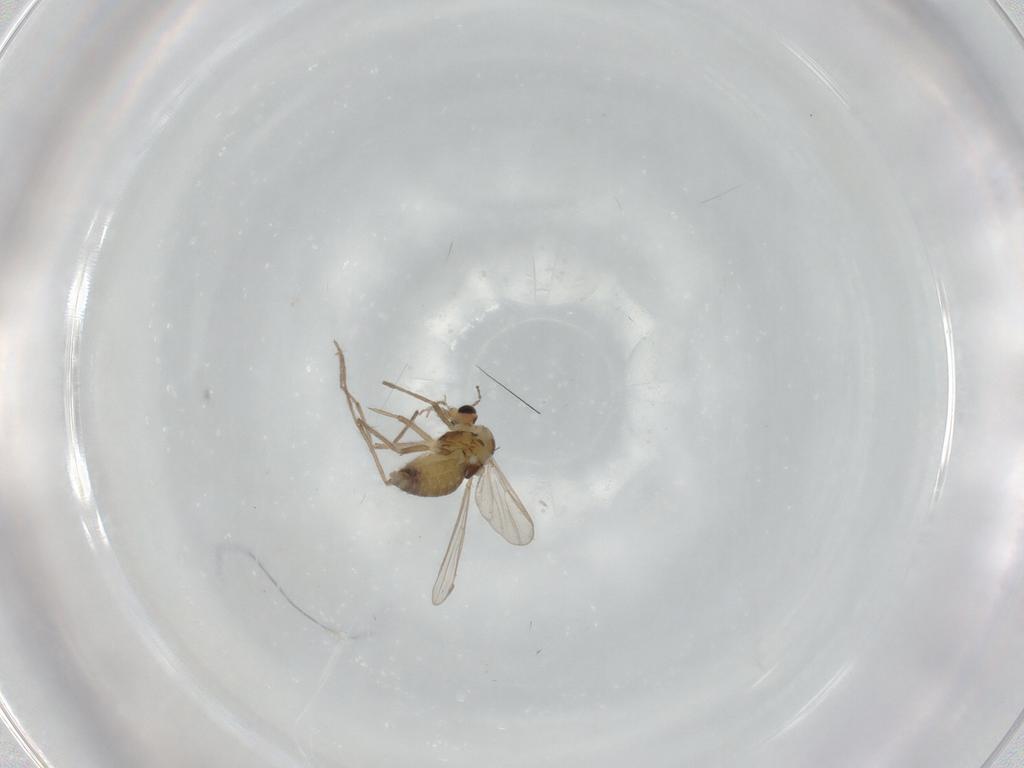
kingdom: Animalia
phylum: Arthropoda
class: Insecta
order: Diptera
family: Chironomidae
